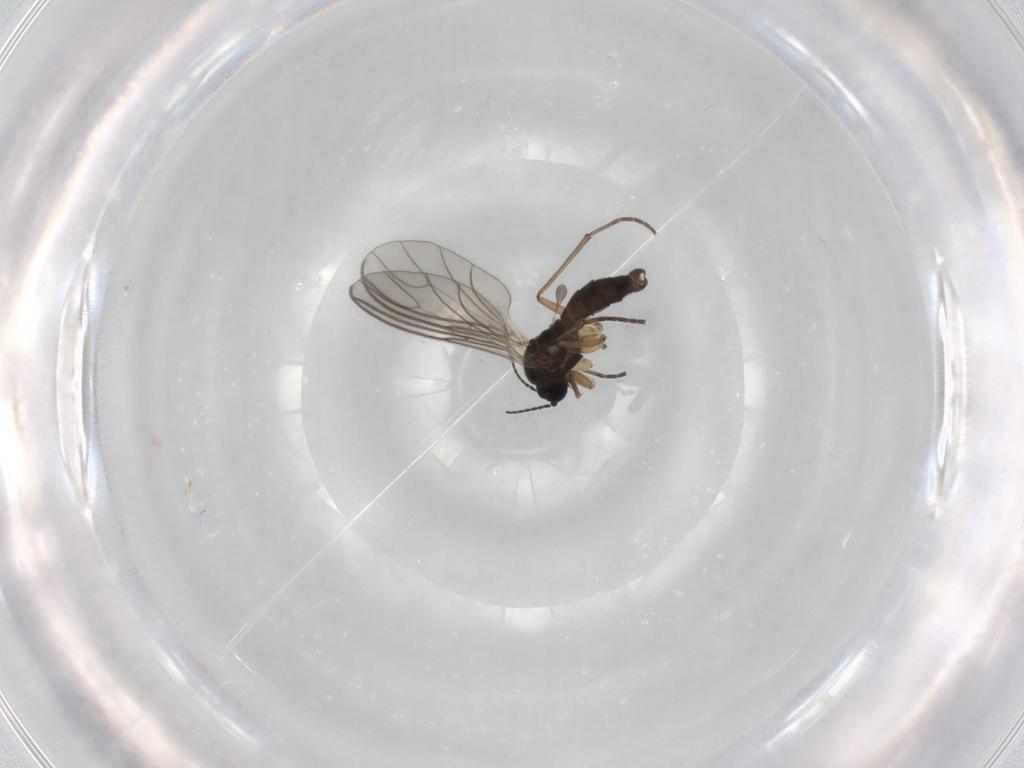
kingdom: Animalia
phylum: Arthropoda
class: Insecta
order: Diptera
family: Sciaridae
